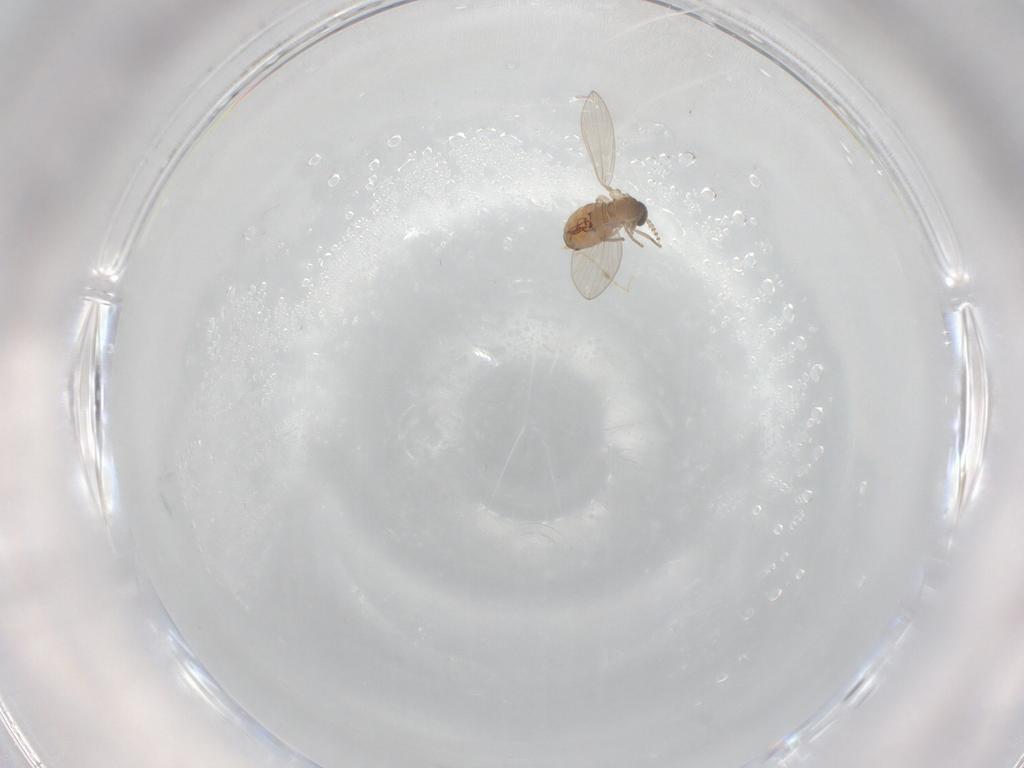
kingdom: Animalia
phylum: Arthropoda
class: Insecta
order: Diptera
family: Psychodidae
